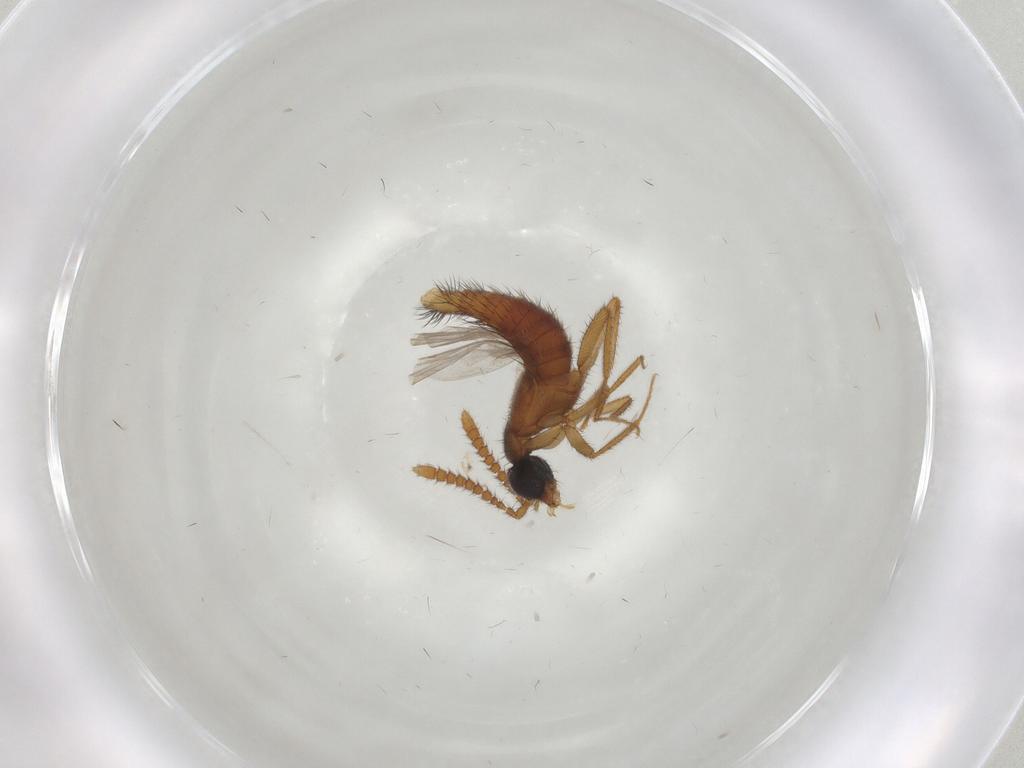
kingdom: Animalia
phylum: Arthropoda
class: Insecta
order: Coleoptera
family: Staphylinidae
